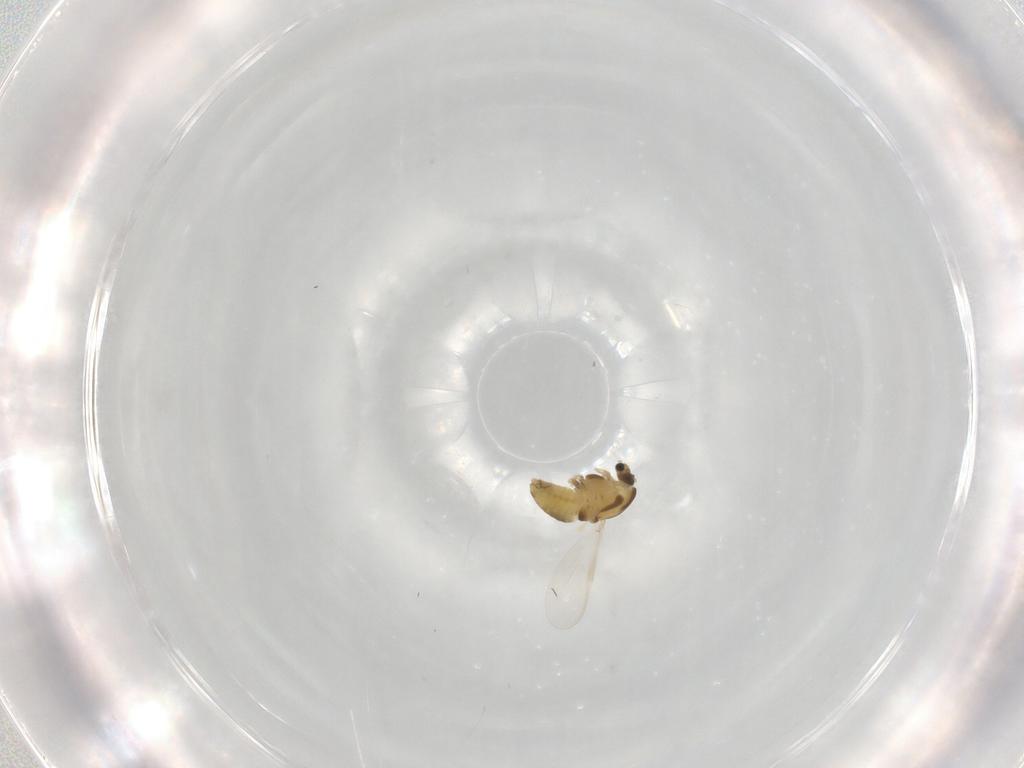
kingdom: Animalia
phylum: Arthropoda
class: Insecta
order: Diptera
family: Chironomidae
